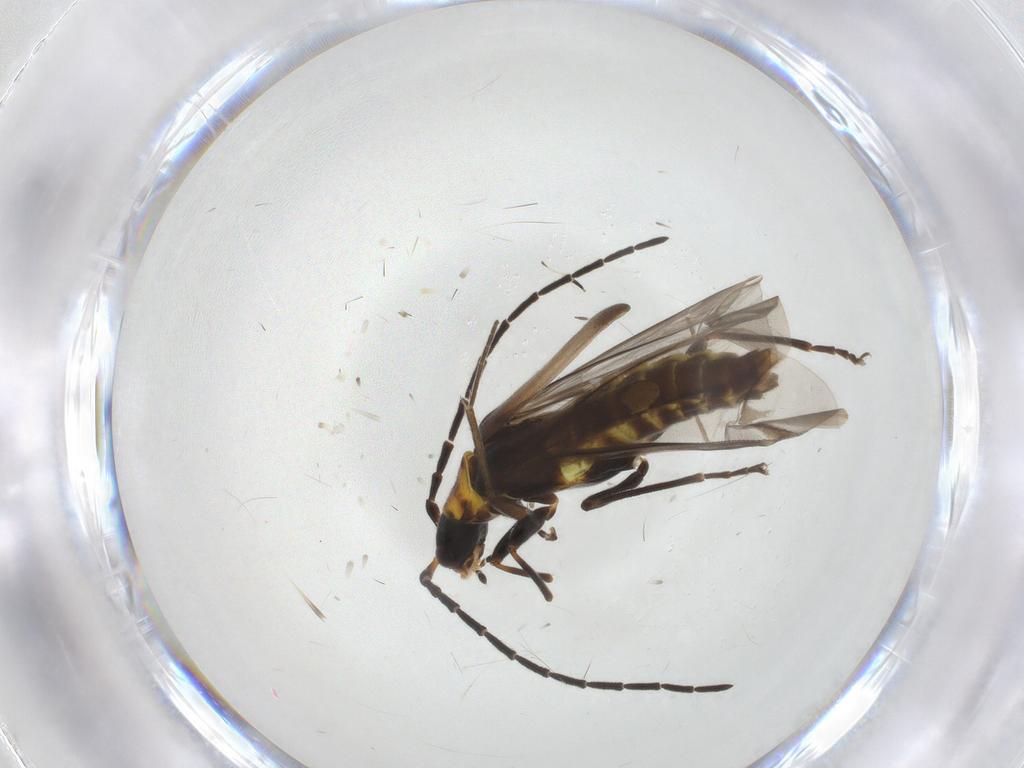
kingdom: Animalia
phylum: Arthropoda
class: Insecta
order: Coleoptera
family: Cantharidae
